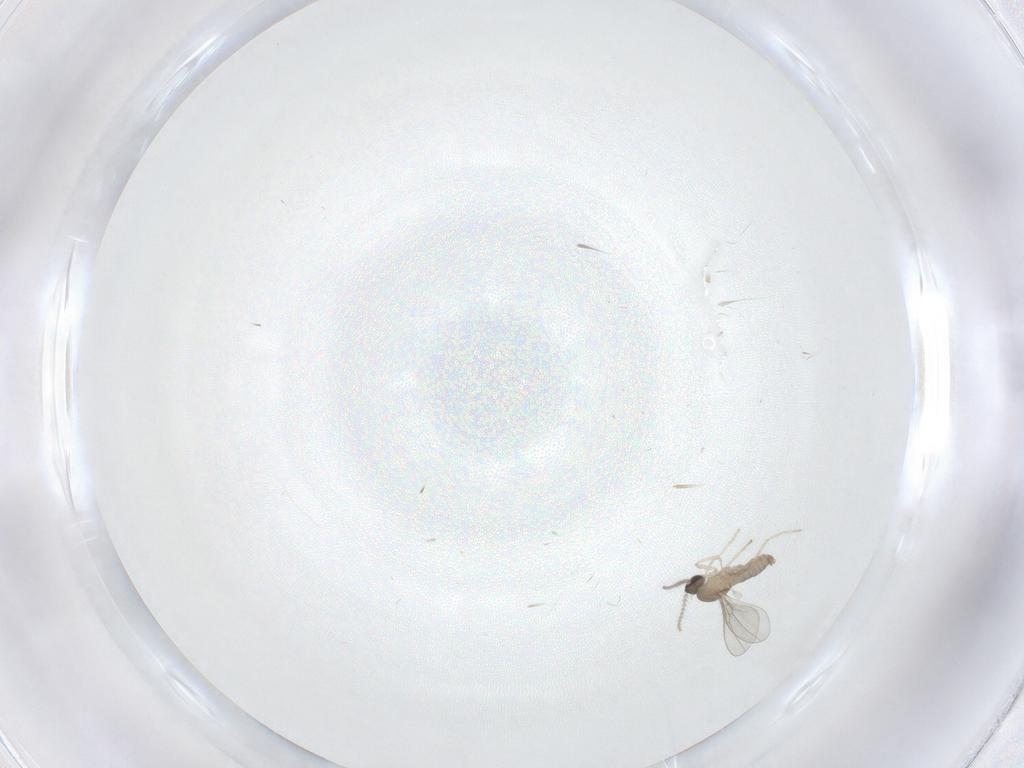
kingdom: Animalia
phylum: Arthropoda
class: Insecta
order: Diptera
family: Cecidomyiidae
